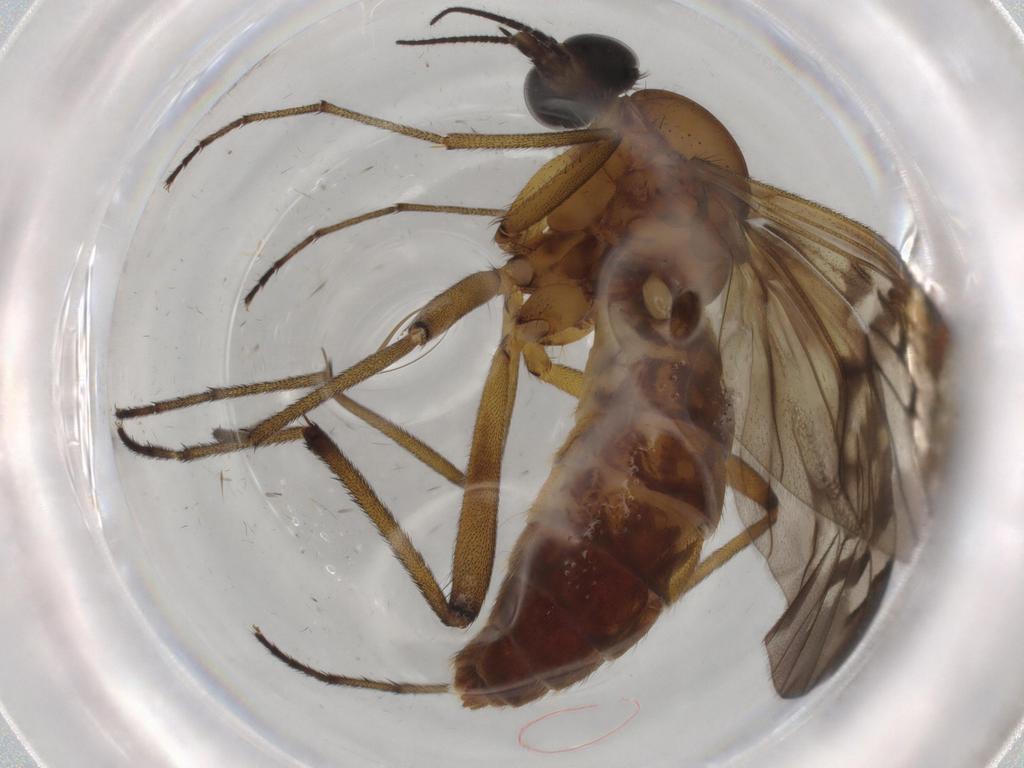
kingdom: Animalia
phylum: Arthropoda
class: Insecta
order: Diptera
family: Anisopodidae
